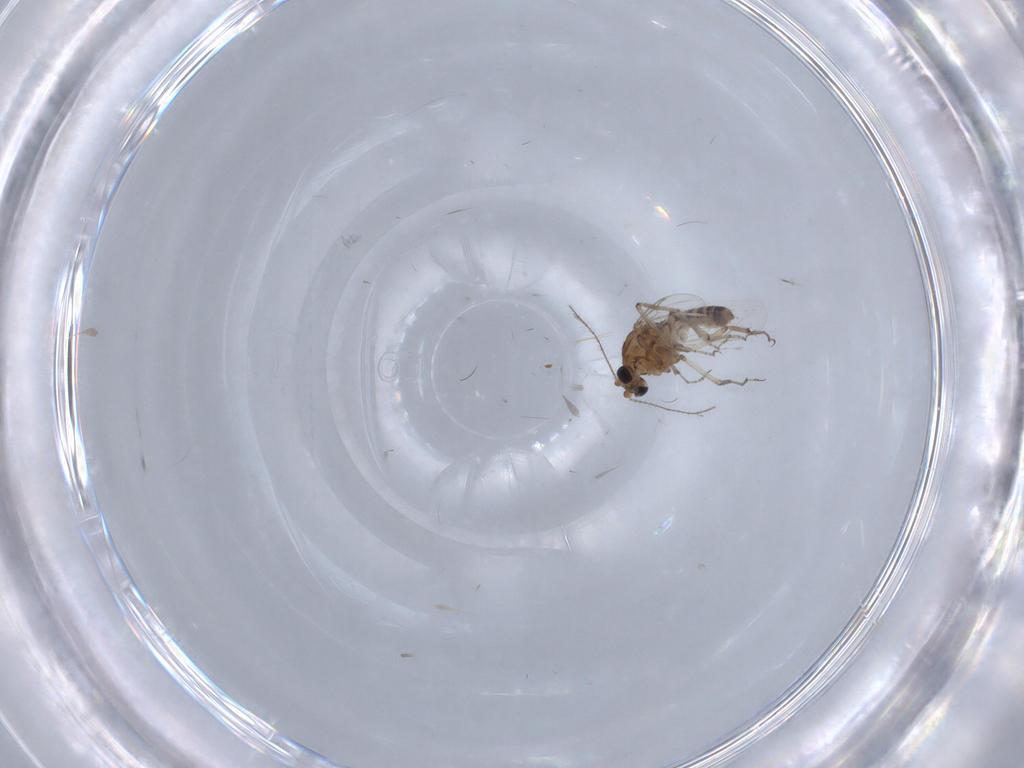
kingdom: Animalia
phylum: Arthropoda
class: Insecta
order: Diptera
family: Ceratopogonidae
